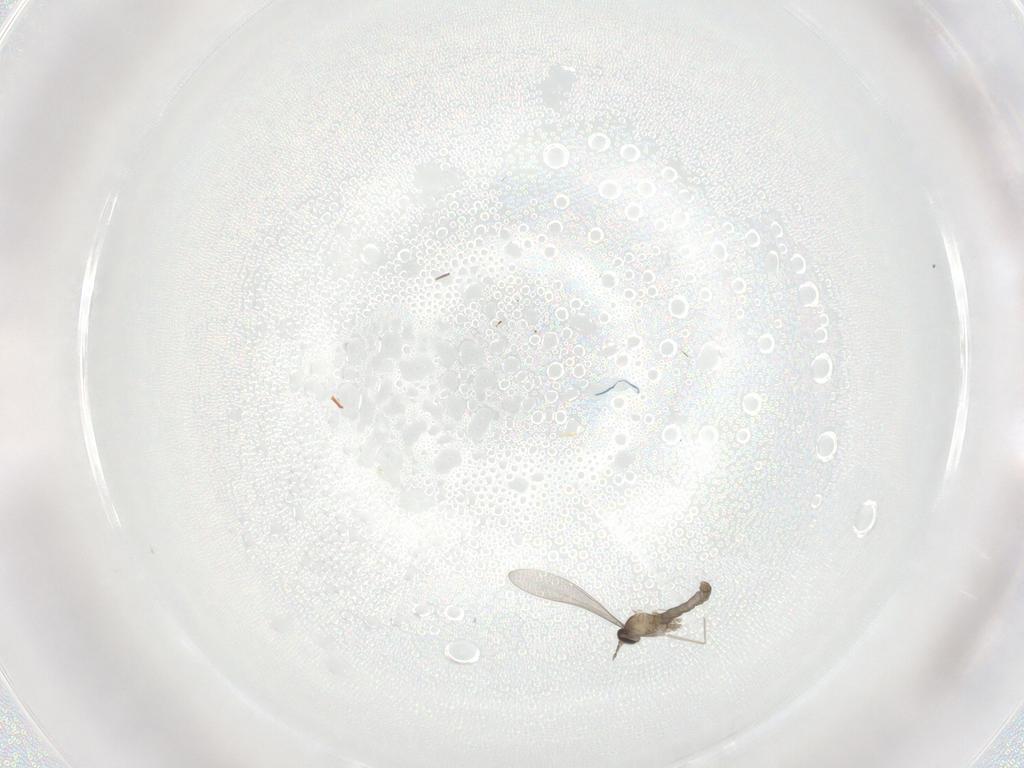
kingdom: Animalia
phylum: Arthropoda
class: Insecta
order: Diptera
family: Cecidomyiidae
